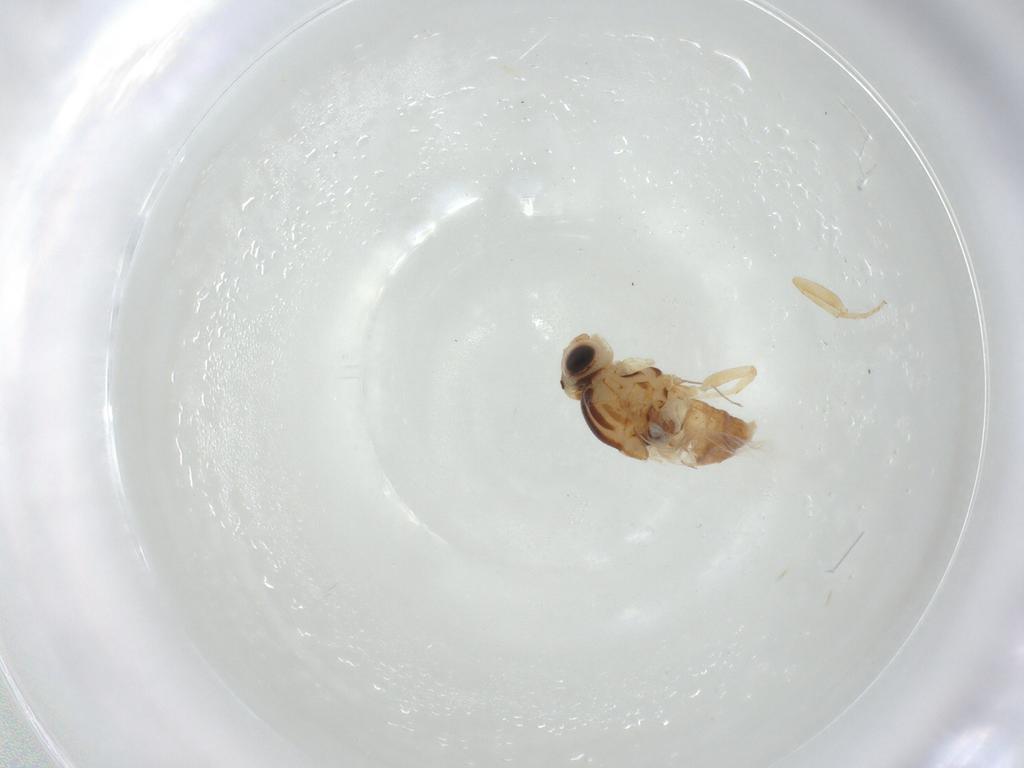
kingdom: Animalia
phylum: Arthropoda
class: Insecta
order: Diptera
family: Chloropidae
